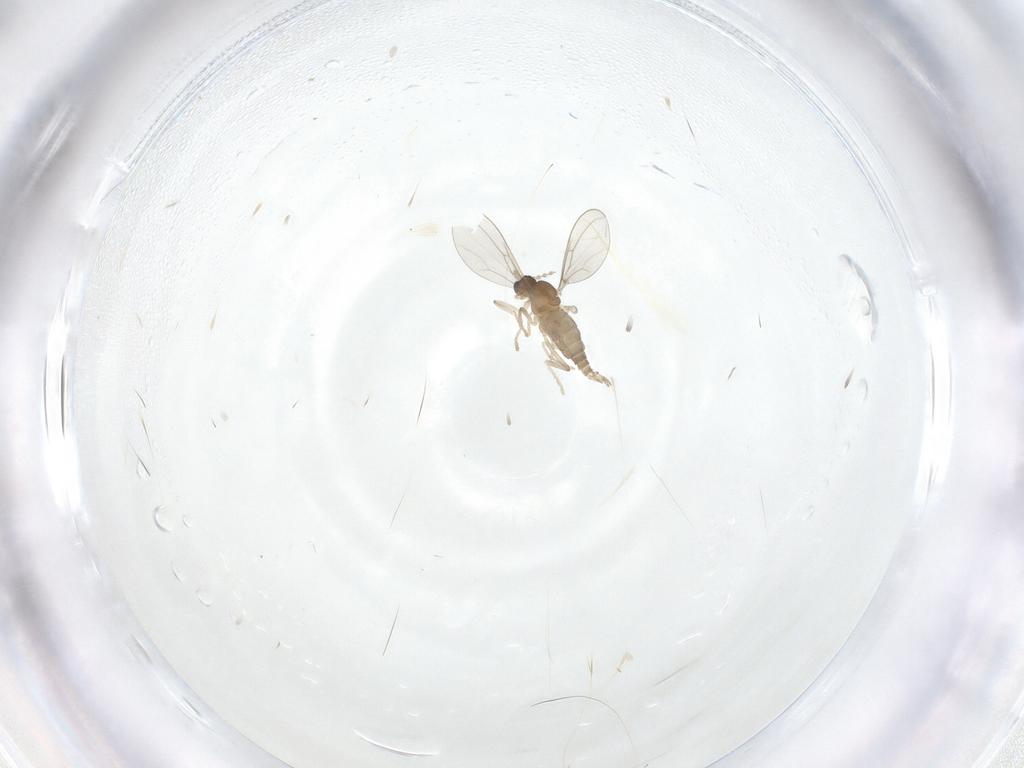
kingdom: Animalia
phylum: Arthropoda
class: Insecta
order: Diptera
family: Cecidomyiidae
